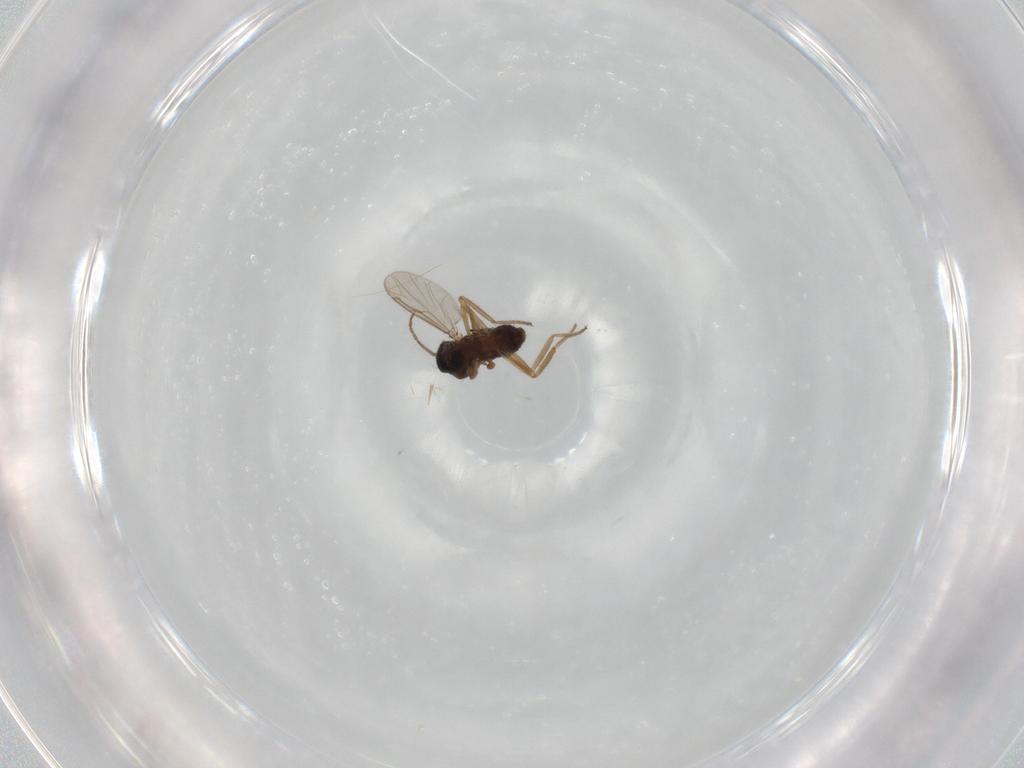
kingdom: Animalia
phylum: Arthropoda
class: Insecta
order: Diptera
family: Ceratopogonidae
